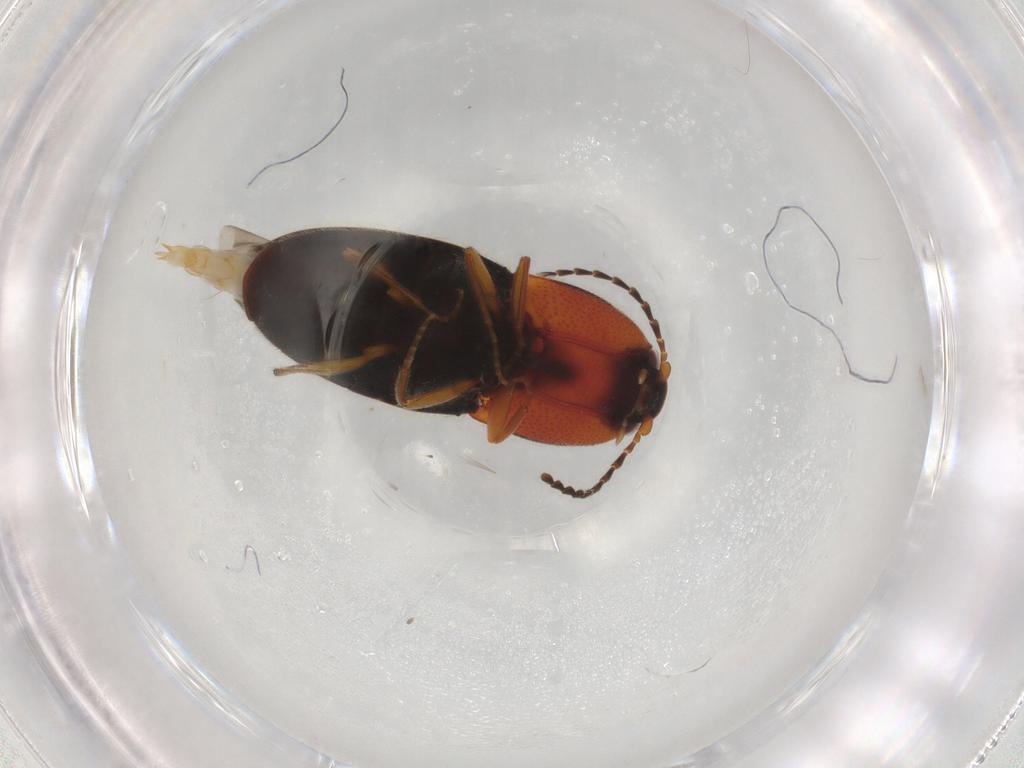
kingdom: Animalia
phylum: Arthropoda
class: Insecta
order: Coleoptera
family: Elateridae
